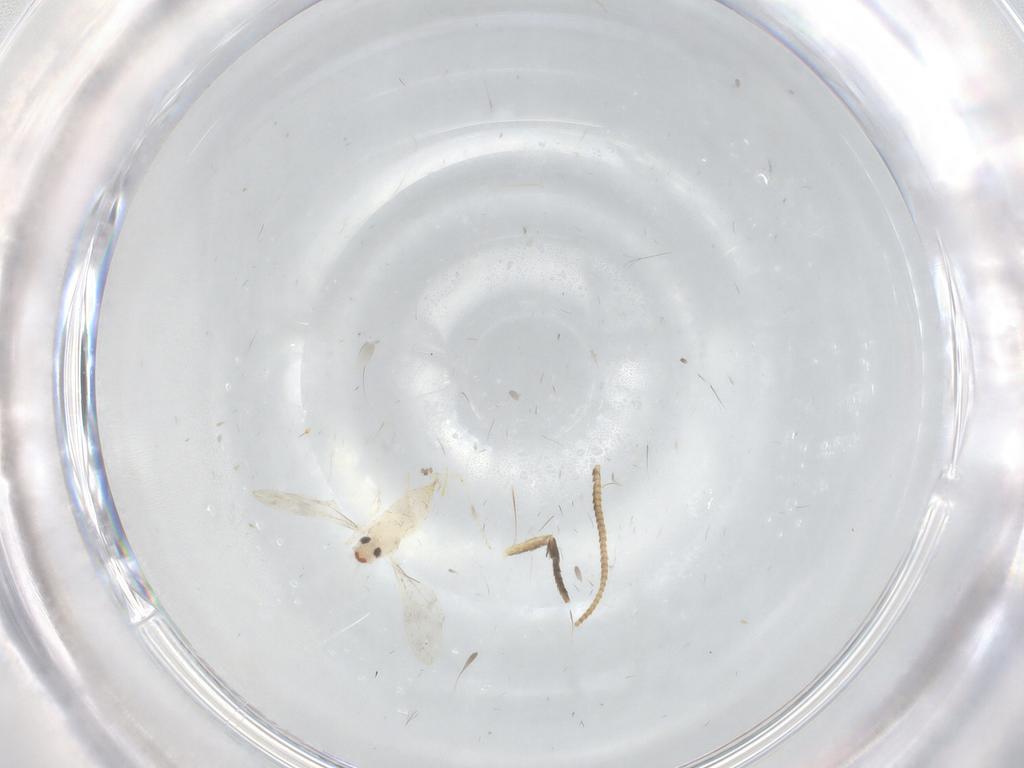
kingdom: Animalia
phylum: Arthropoda
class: Insecta
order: Diptera
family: Cecidomyiidae
